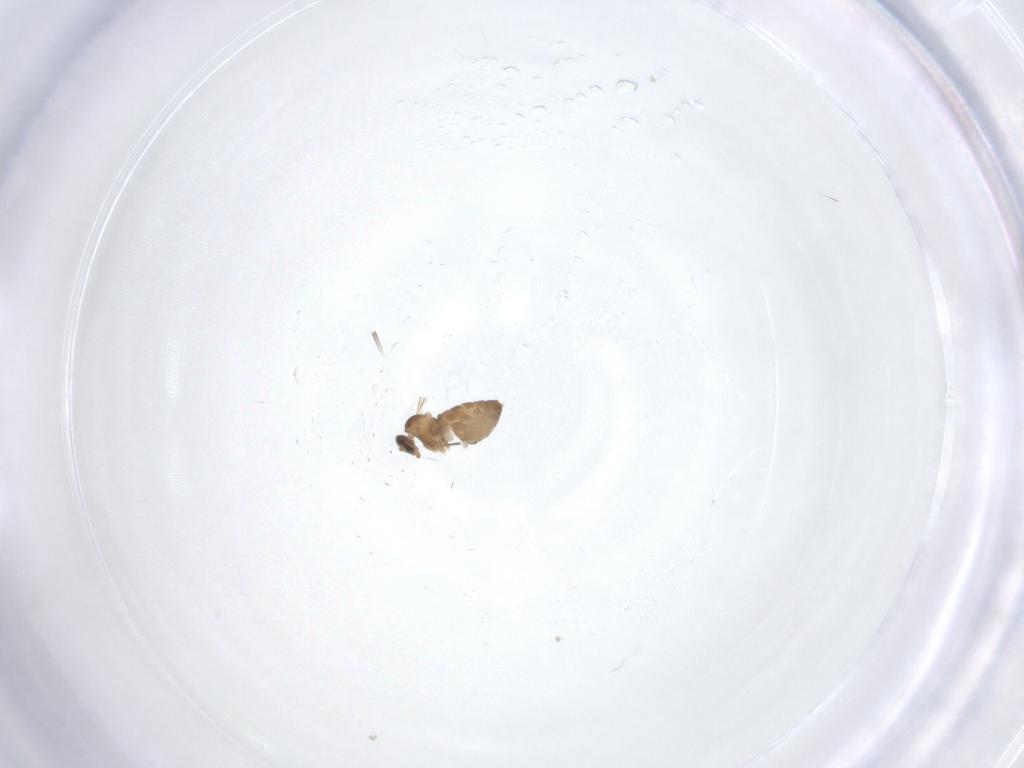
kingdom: Animalia
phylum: Arthropoda
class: Insecta
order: Diptera
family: Cecidomyiidae
